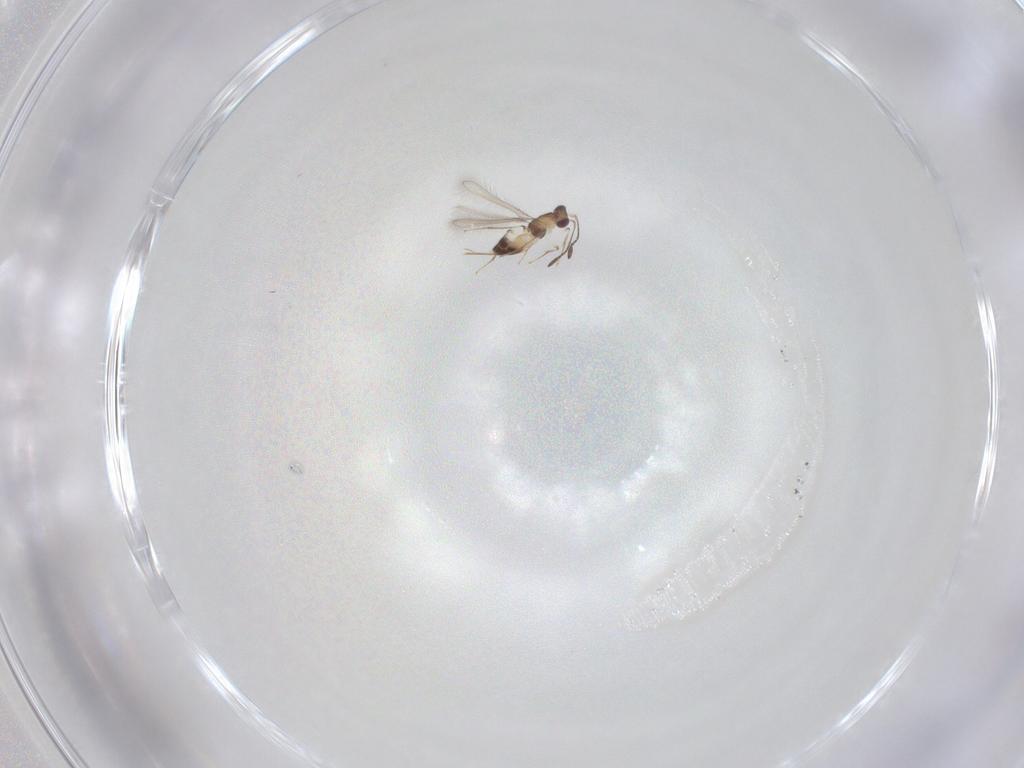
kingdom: Animalia
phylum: Arthropoda
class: Insecta
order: Hymenoptera
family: Mymaridae
